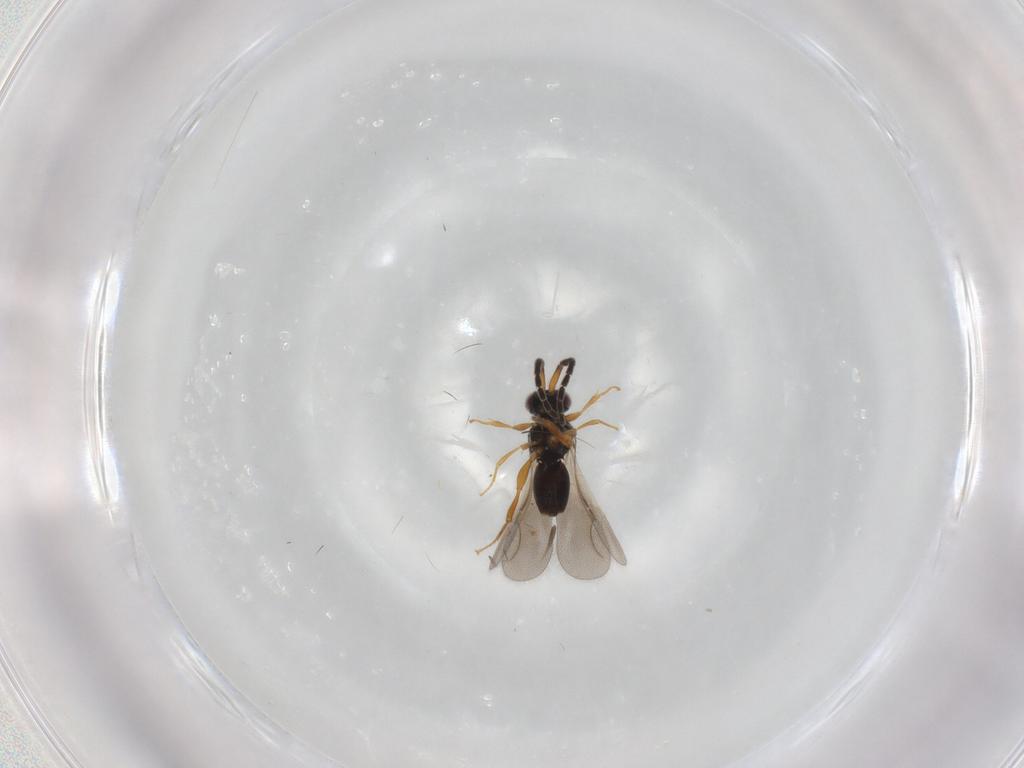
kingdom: Animalia
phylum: Arthropoda
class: Insecta
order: Hymenoptera
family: Ceraphronidae
